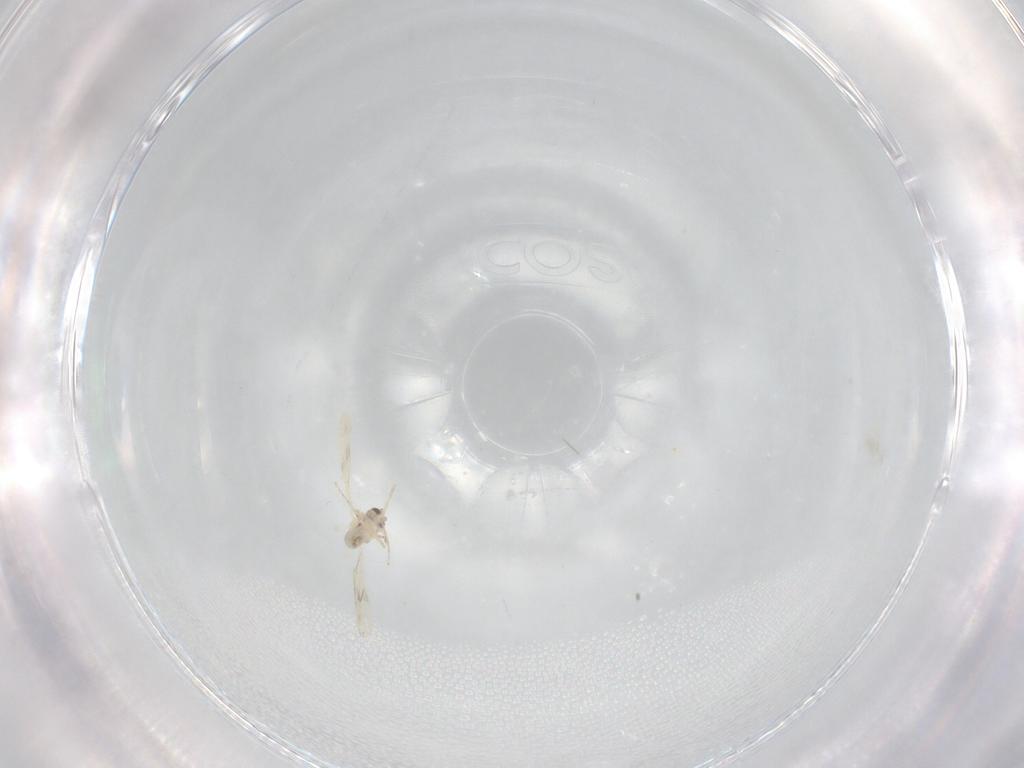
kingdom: Animalia
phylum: Arthropoda
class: Insecta
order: Diptera
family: Cecidomyiidae
